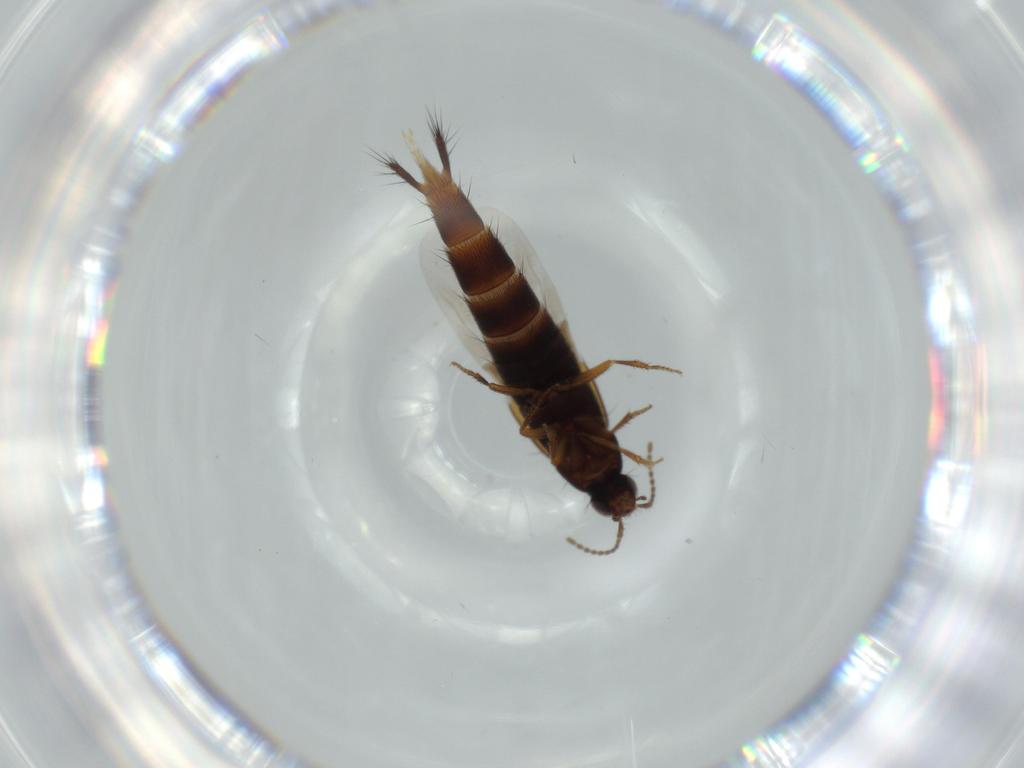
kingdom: Animalia
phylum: Arthropoda
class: Insecta
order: Coleoptera
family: Staphylinidae
